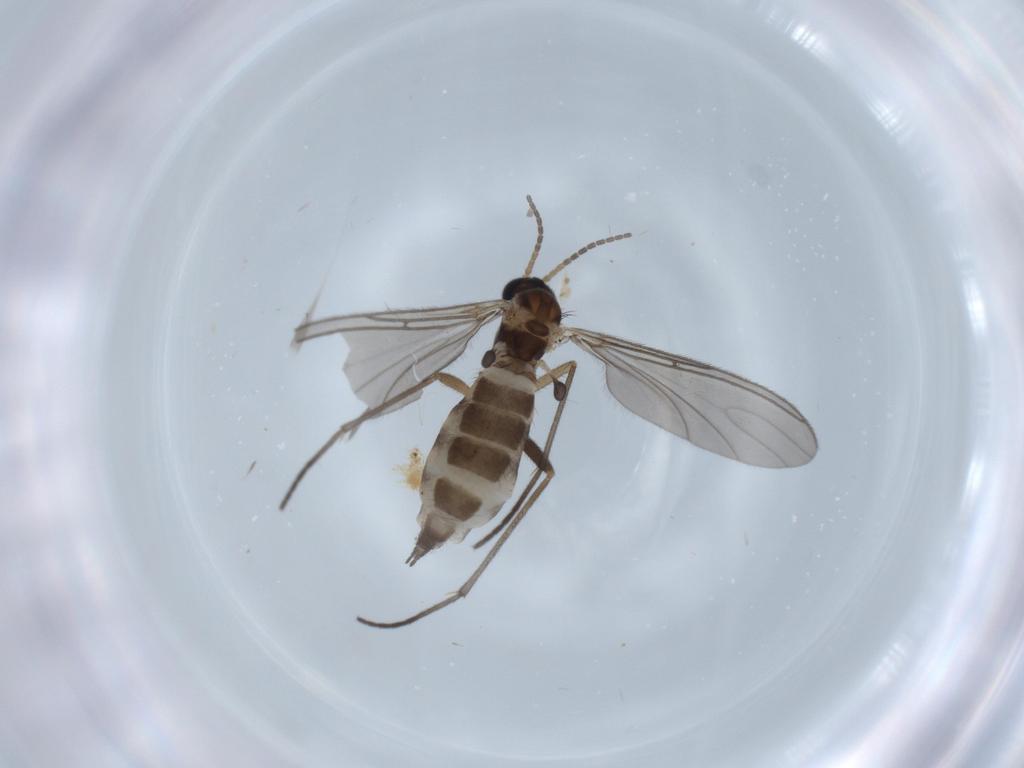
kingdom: Animalia
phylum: Arthropoda
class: Insecta
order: Diptera
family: Sciaridae
